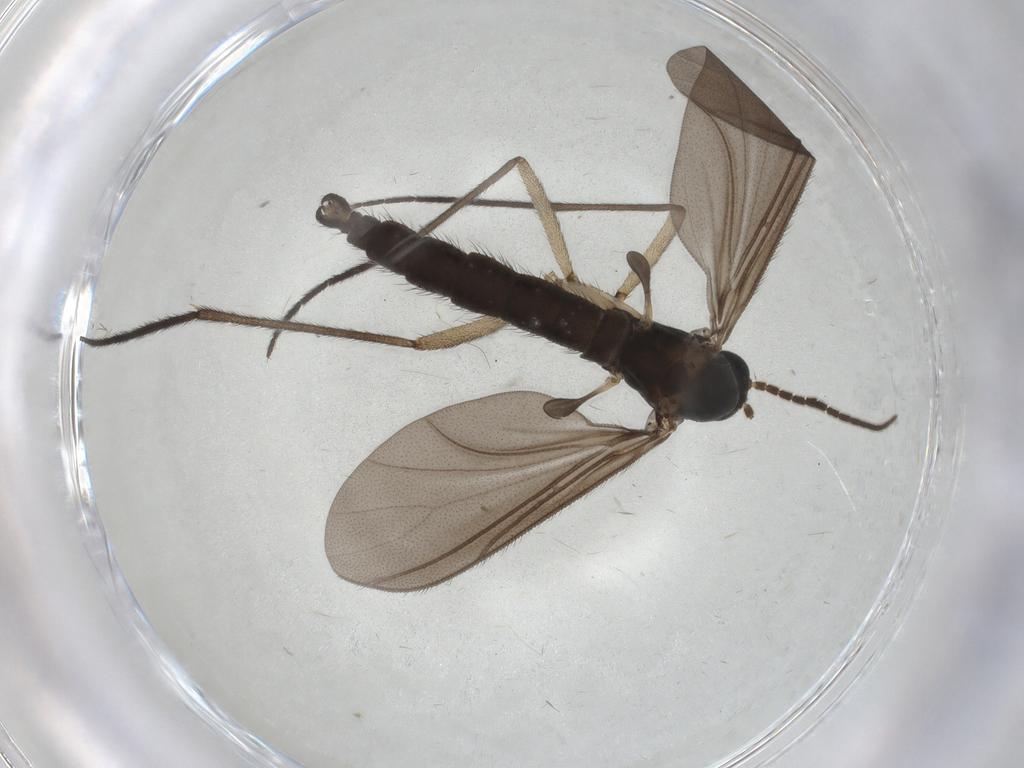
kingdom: Animalia
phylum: Arthropoda
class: Insecta
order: Diptera
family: Sciaridae
